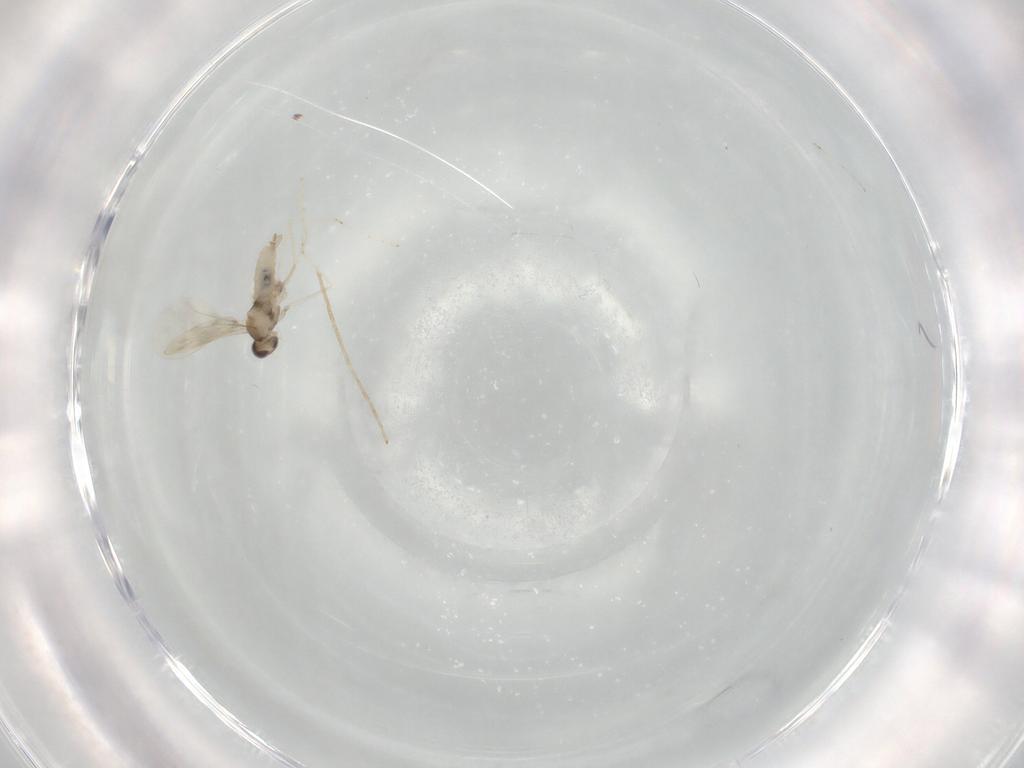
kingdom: Animalia
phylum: Arthropoda
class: Insecta
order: Diptera
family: Cecidomyiidae
